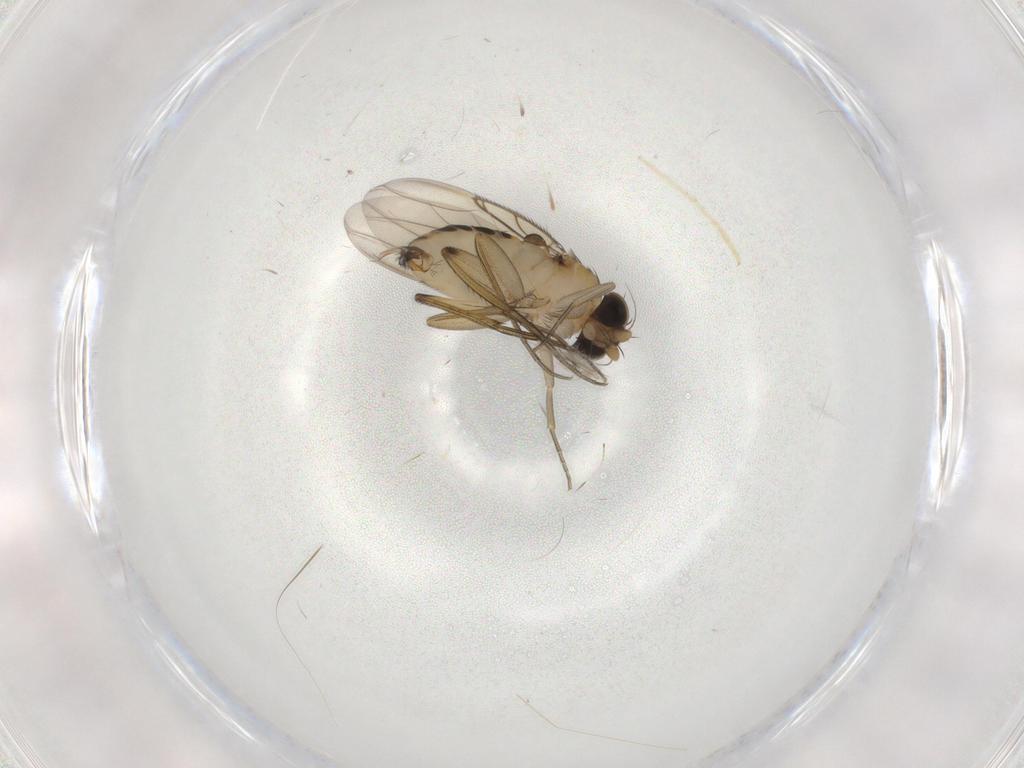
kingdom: Animalia
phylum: Arthropoda
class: Insecta
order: Diptera
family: Phoridae
